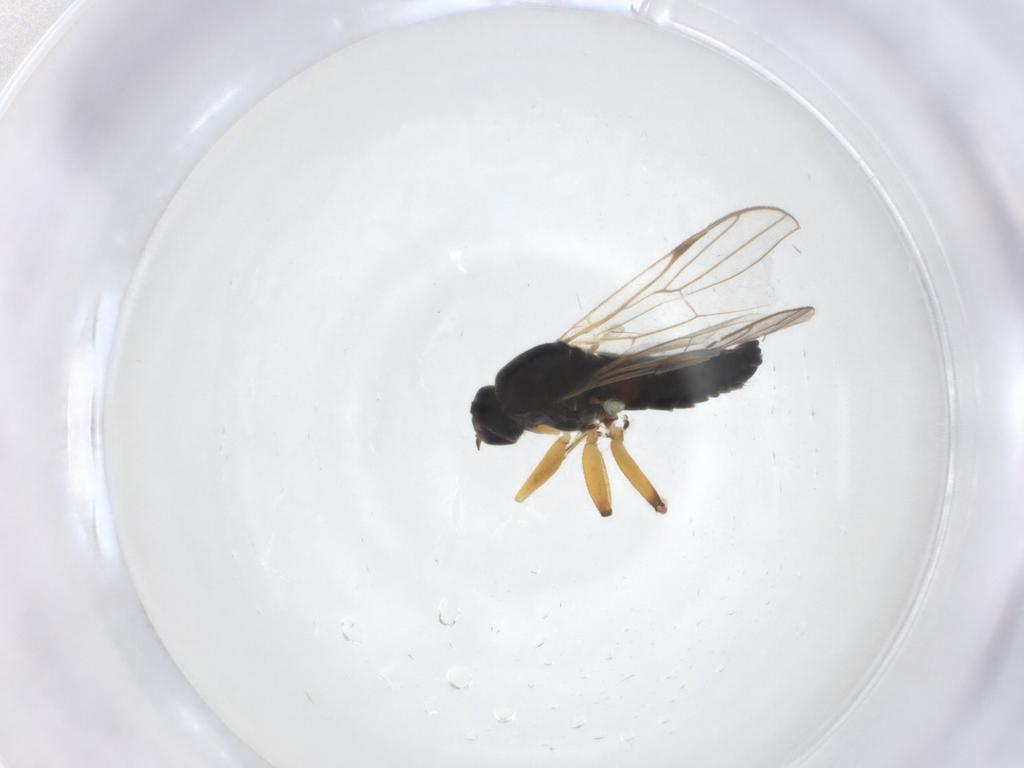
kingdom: Animalia
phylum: Arthropoda
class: Insecta
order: Diptera
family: Hybotidae
